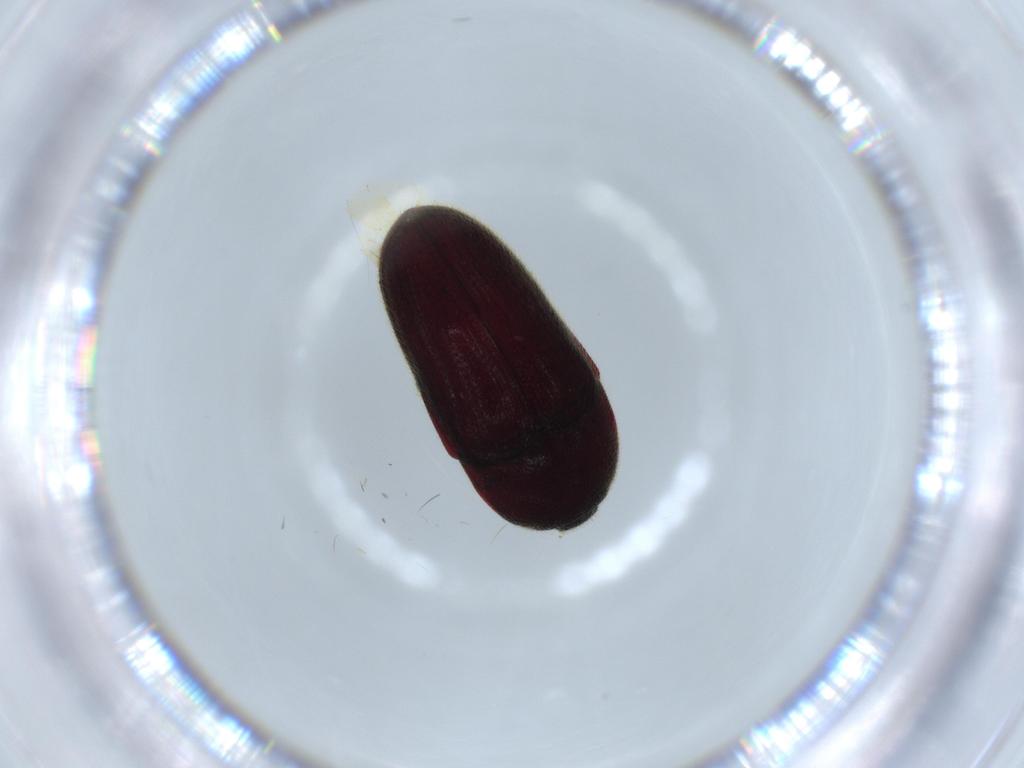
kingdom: Animalia
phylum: Arthropoda
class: Insecta
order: Coleoptera
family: Throscidae
